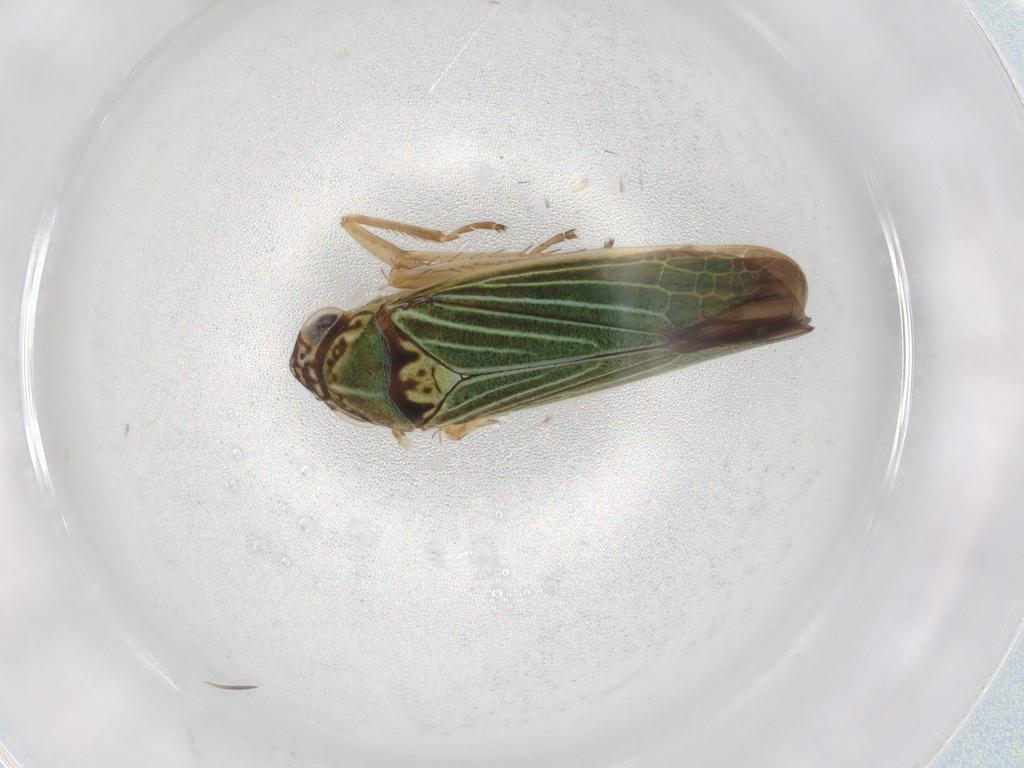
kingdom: Animalia
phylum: Arthropoda
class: Insecta
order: Hemiptera
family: Cicadellidae
